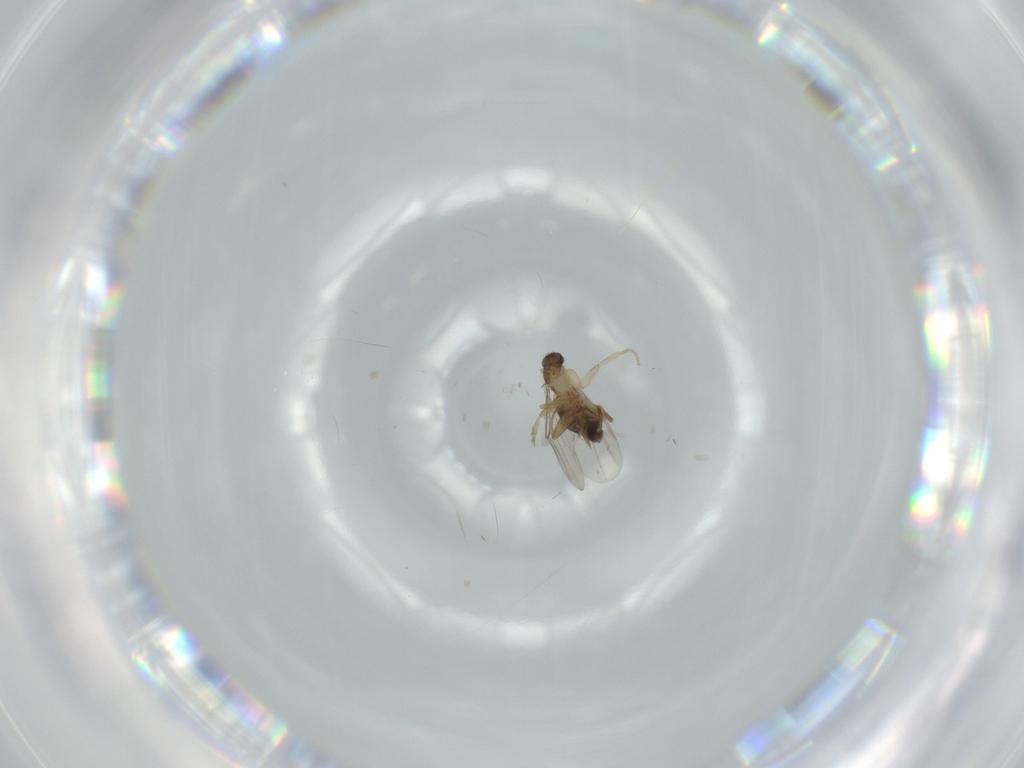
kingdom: Animalia
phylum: Arthropoda
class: Insecta
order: Diptera
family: Phoridae
